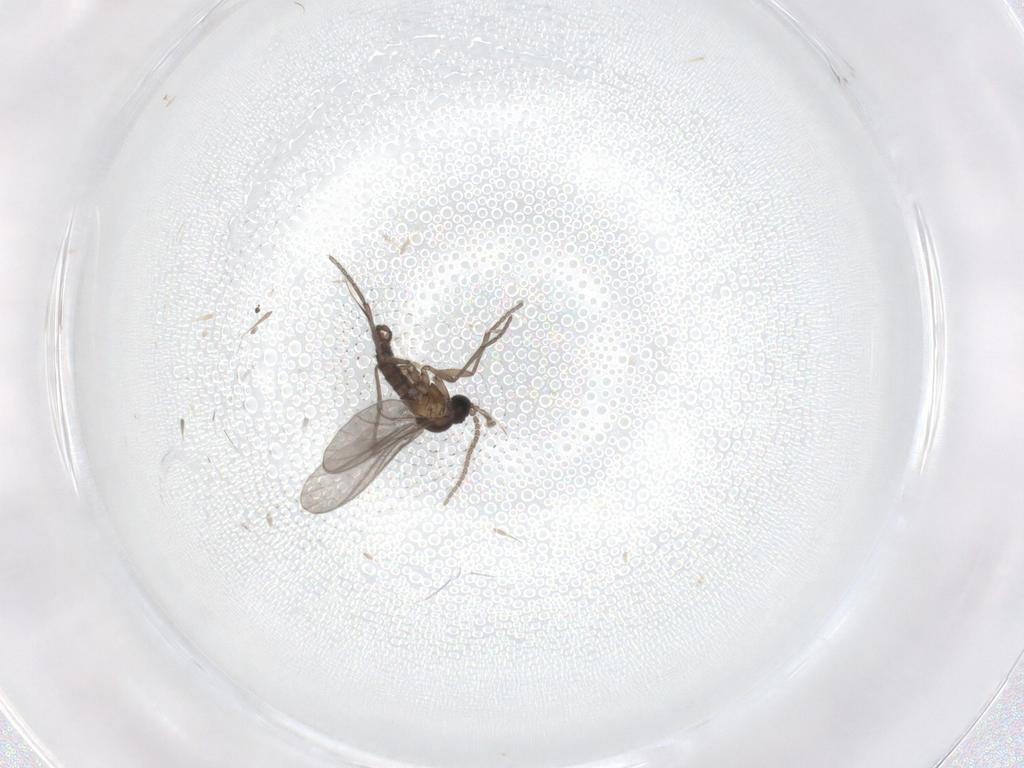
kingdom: Animalia
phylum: Arthropoda
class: Insecta
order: Diptera
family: Sciaridae
